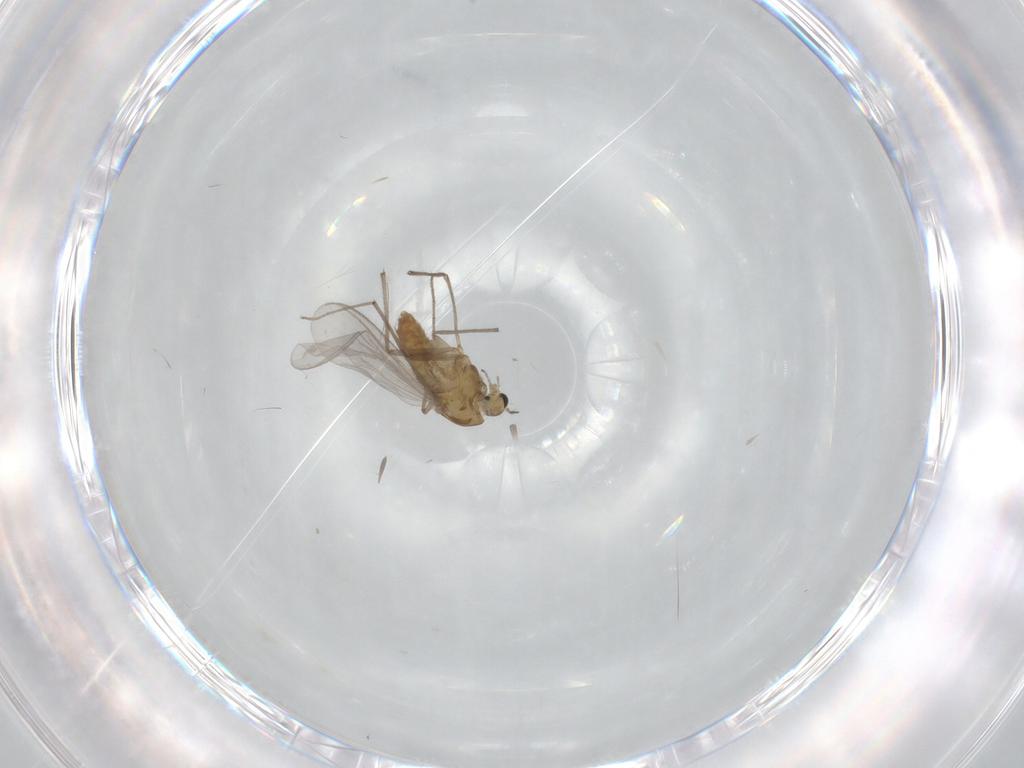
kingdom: Animalia
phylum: Arthropoda
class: Insecta
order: Diptera
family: Chironomidae
